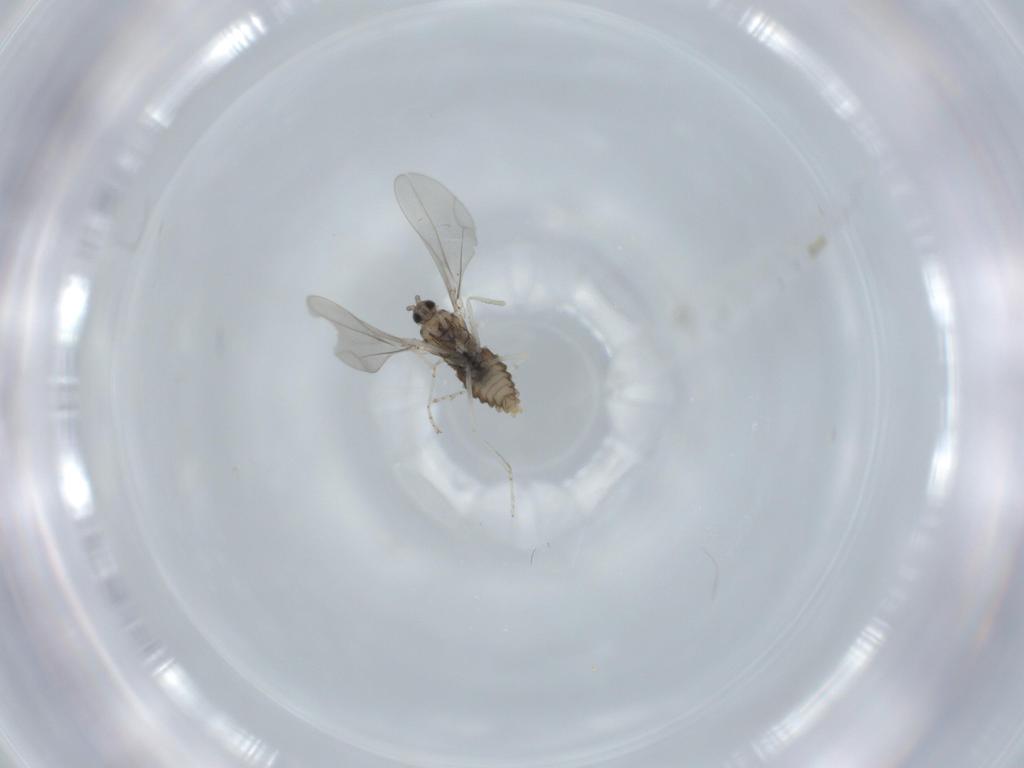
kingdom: Animalia
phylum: Arthropoda
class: Insecta
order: Diptera
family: Cecidomyiidae
